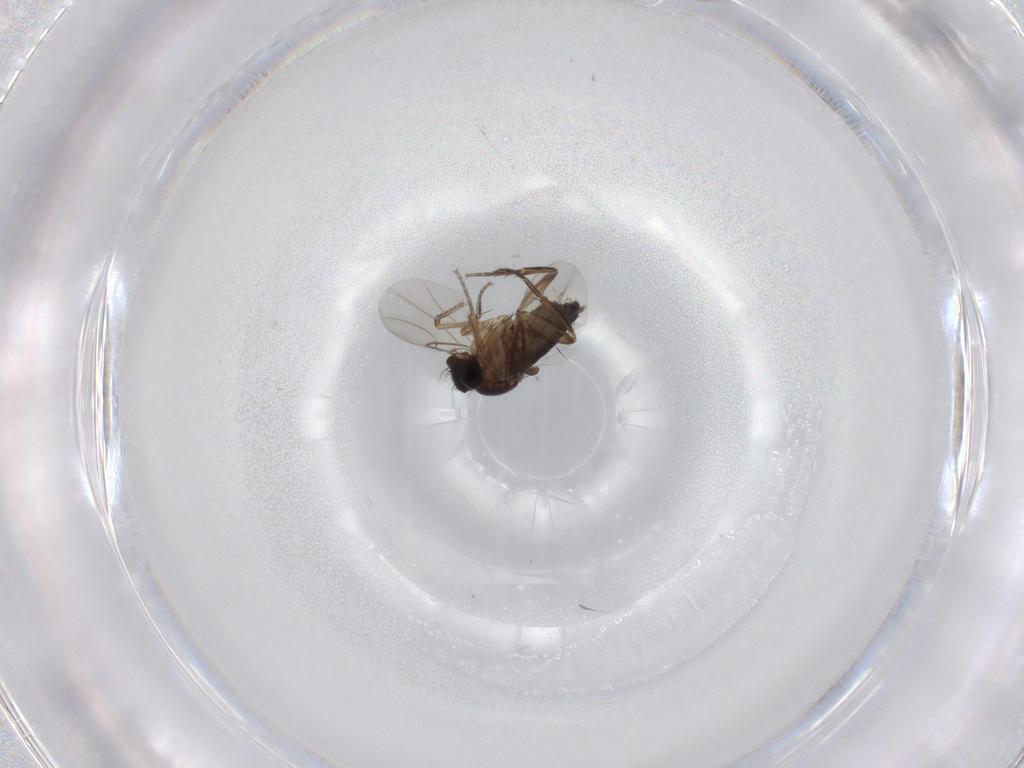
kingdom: Animalia
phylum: Arthropoda
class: Insecta
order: Diptera
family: Phoridae
